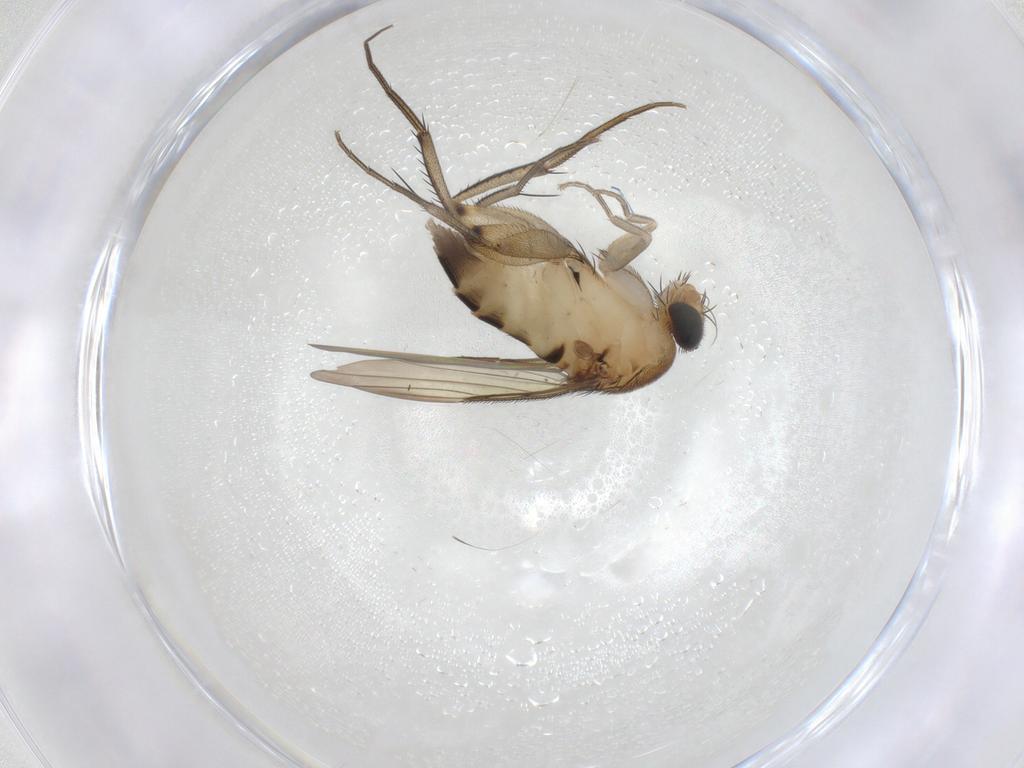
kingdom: Animalia
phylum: Arthropoda
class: Insecta
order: Diptera
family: Phoridae
